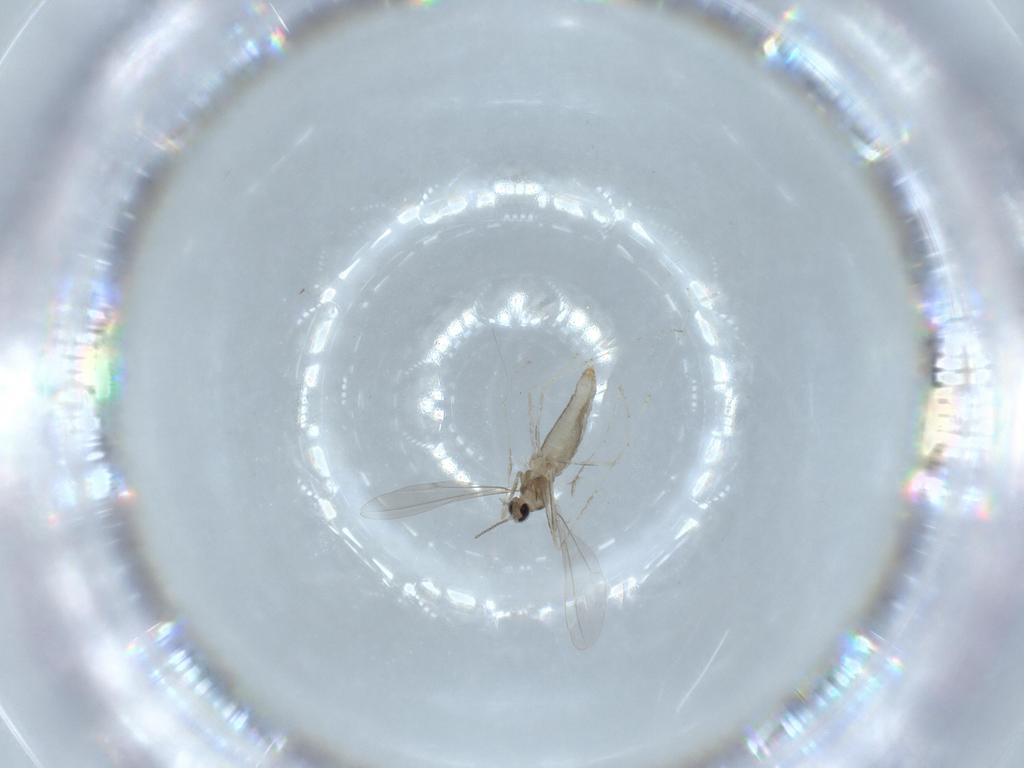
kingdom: Animalia
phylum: Arthropoda
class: Insecta
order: Diptera
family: Cecidomyiidae
